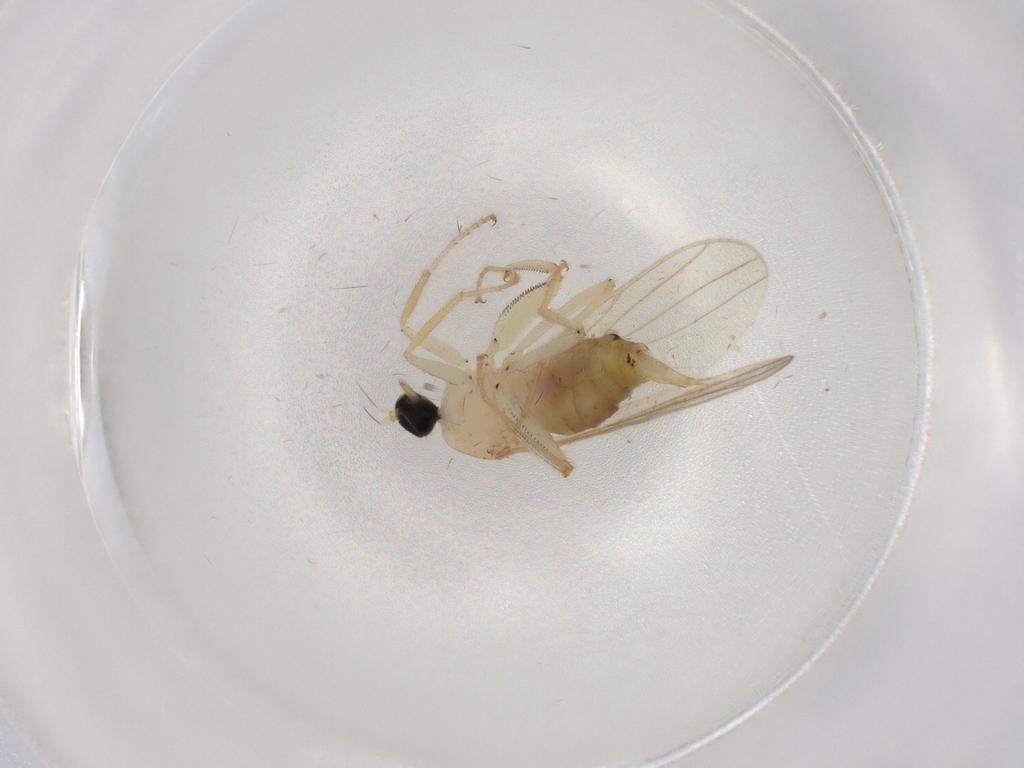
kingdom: Animalia
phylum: Arthropoda
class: Insecta
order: Diptera
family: Hybotidae
